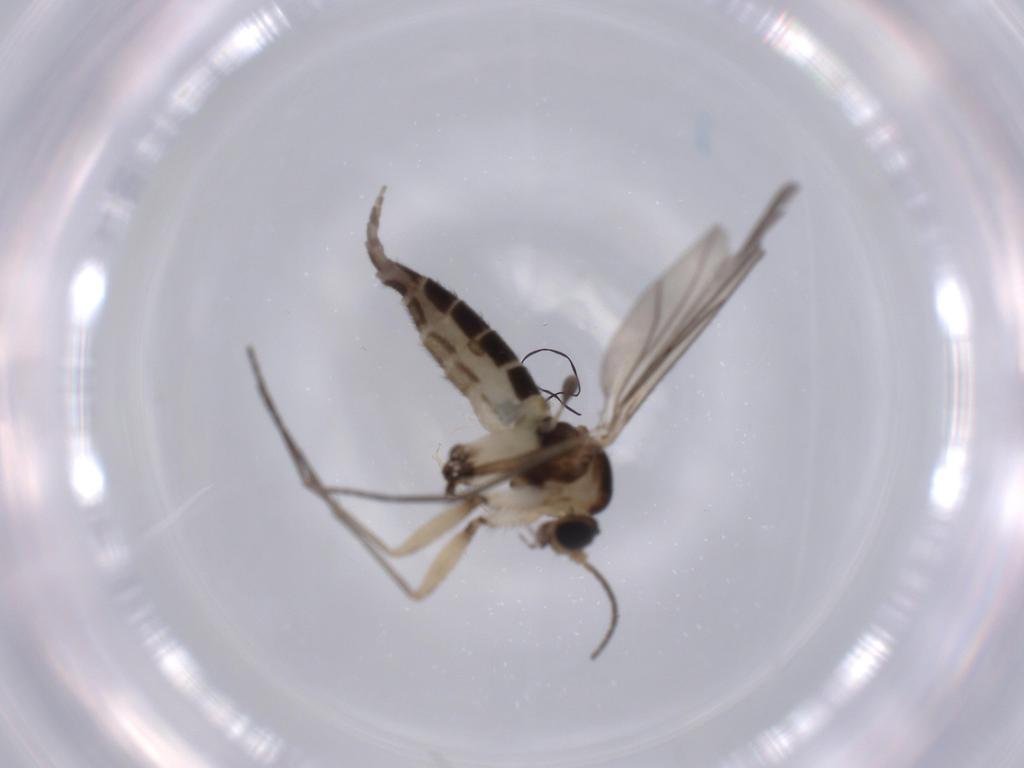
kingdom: Animalia
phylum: Arthropoda
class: Insecta
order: Diptera
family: Sciaridae
